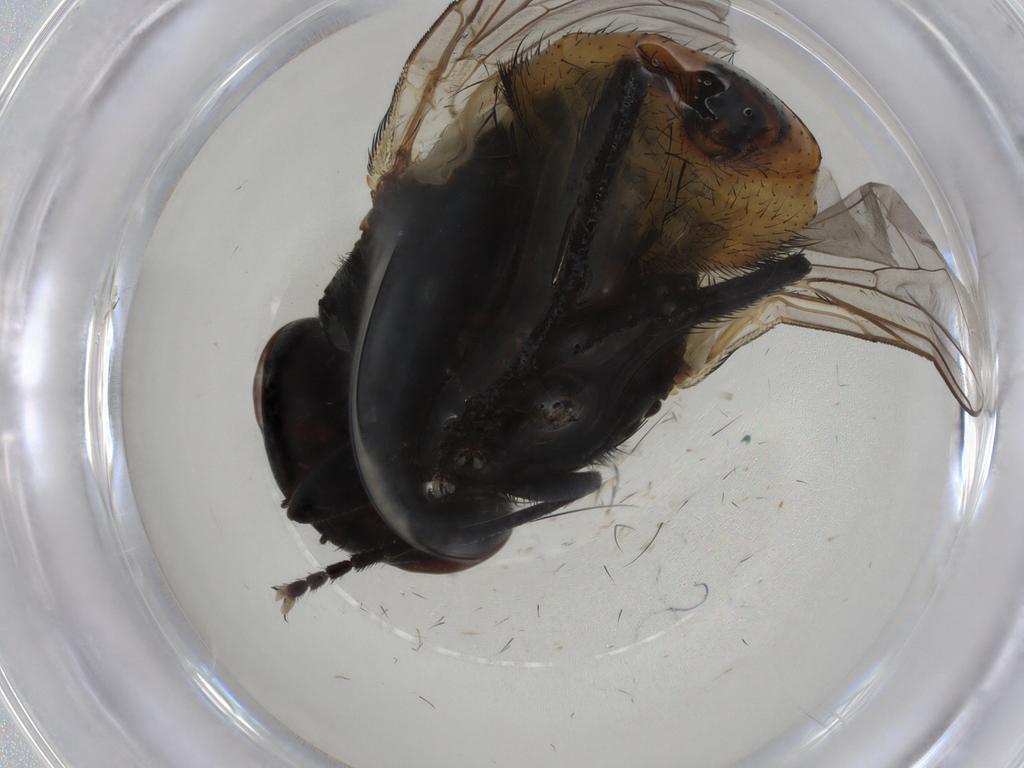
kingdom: Animalia
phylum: Arthropoda
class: Insecta
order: Diptera
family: Muscidae
